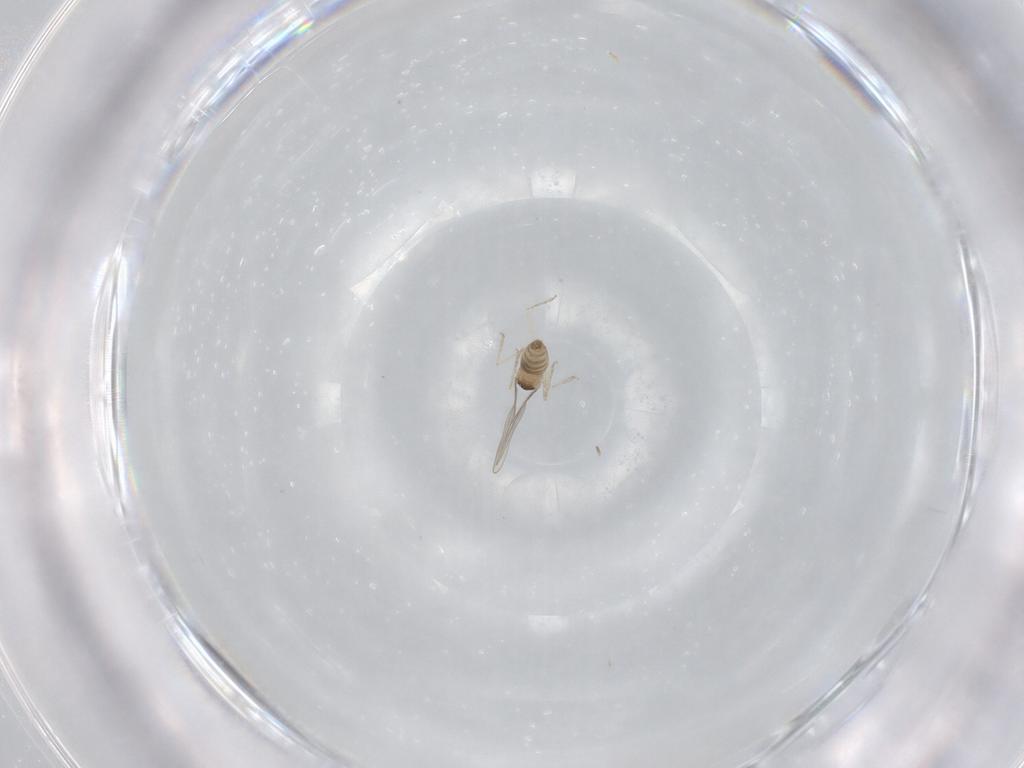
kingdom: Animalia
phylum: Arthropoda
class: Insecta
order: Diptera
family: Cecidomyiidae
